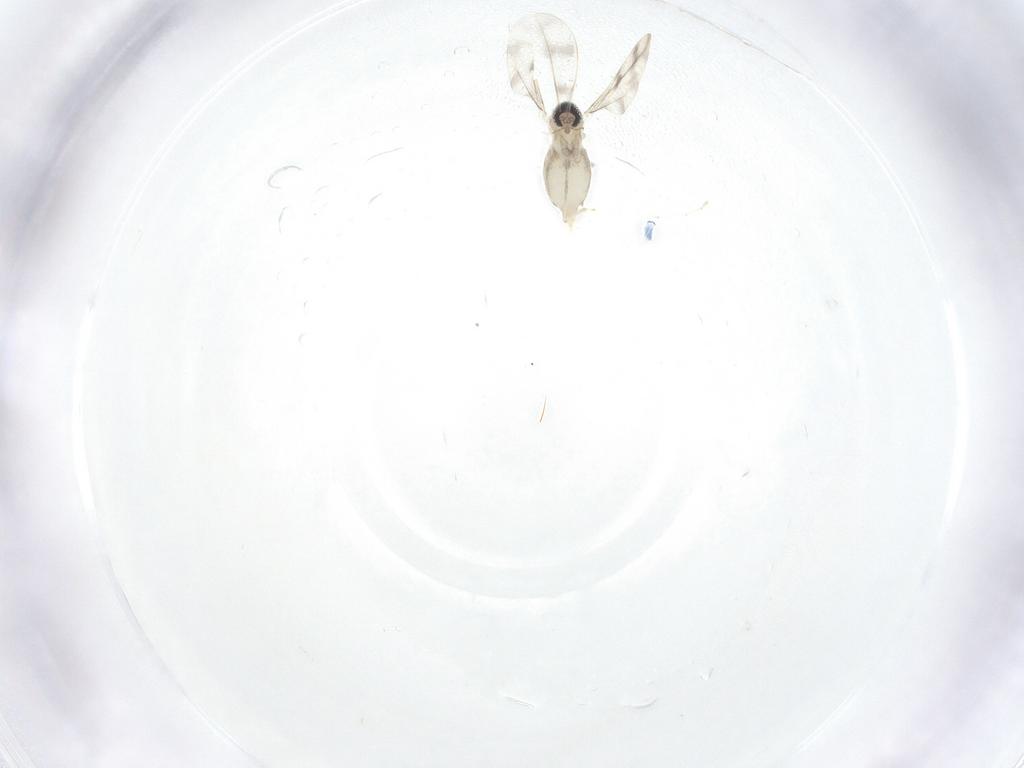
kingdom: Animalia
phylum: Arthropoda
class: Insecta
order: Diptera
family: Cecidomyiidae
